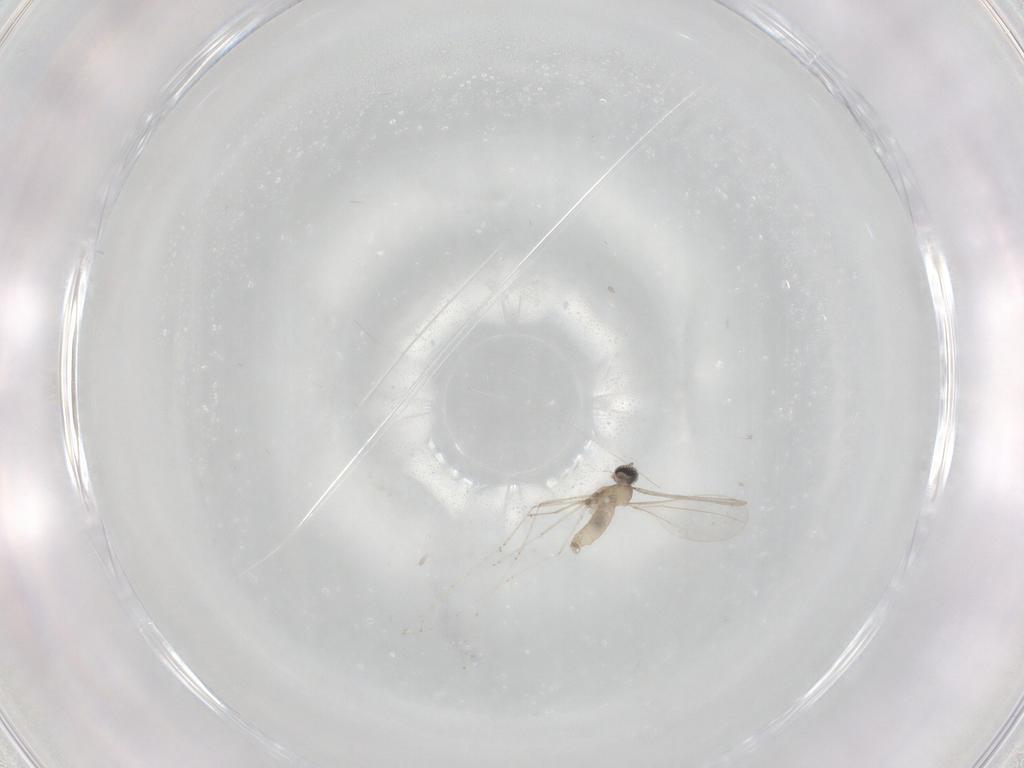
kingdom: Animalia
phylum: Arthropoda
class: Insecta
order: Diptera
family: Cecidomyiidae
